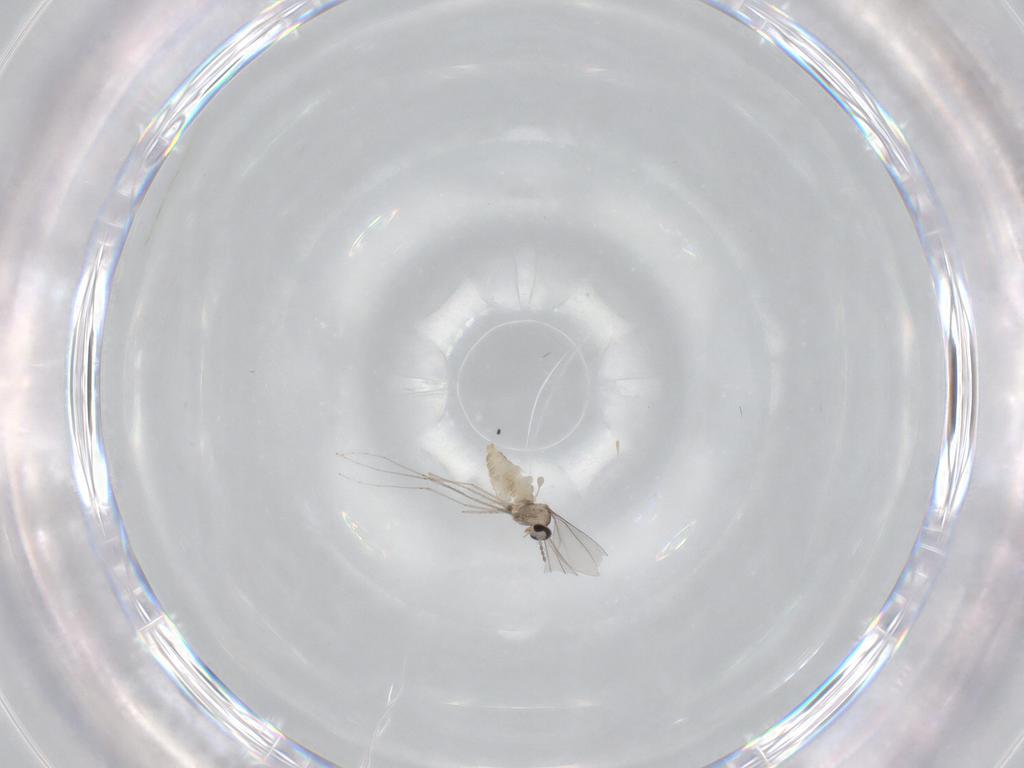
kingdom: Animalia
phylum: Arthropoda
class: Insecta
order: Diptera
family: Cecidomyiidae
